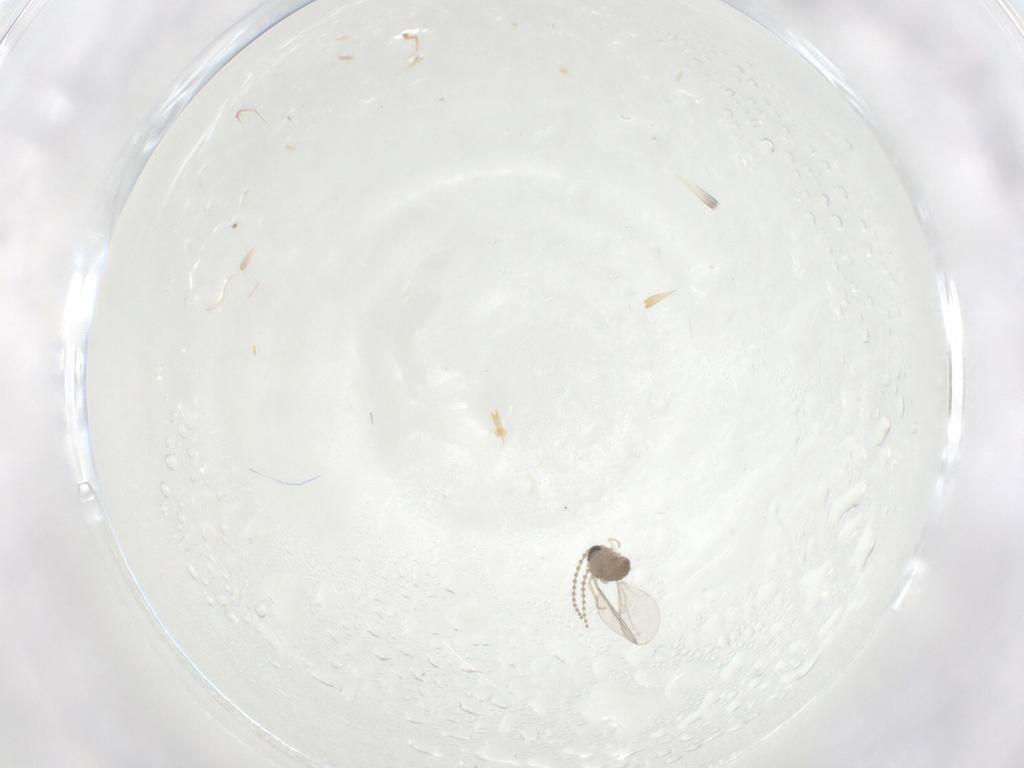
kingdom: Animalia
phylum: Arthropoda
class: Insecta
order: Diptera
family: Cecidomyiidae
